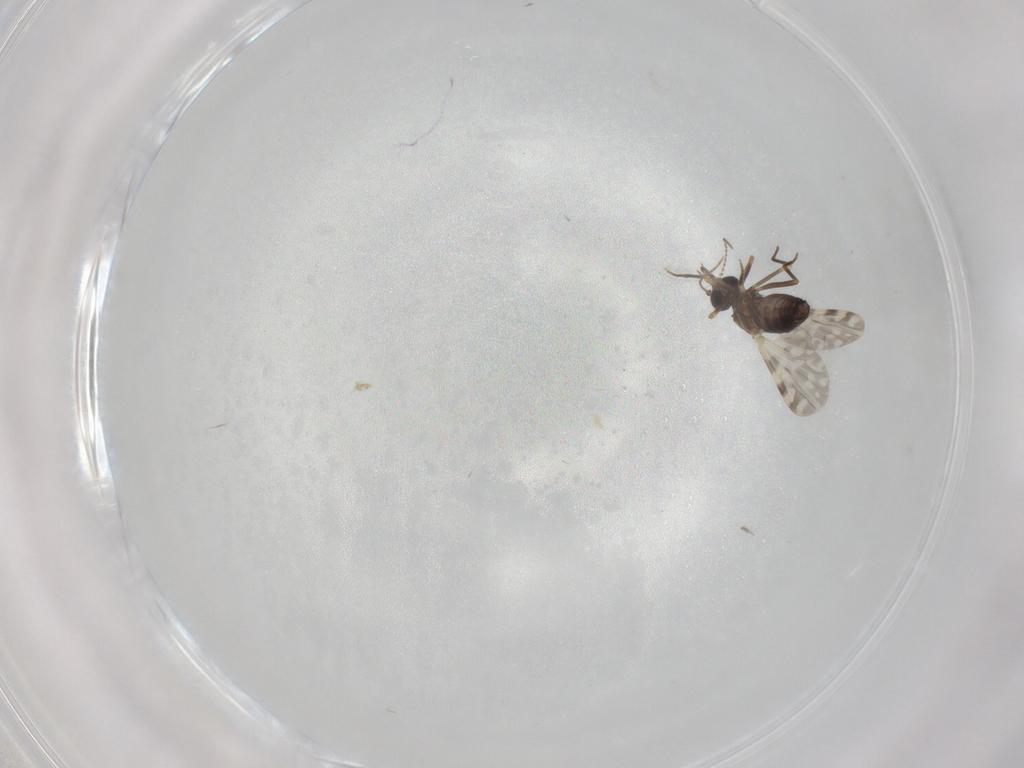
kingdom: Animalia
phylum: Arthropoda
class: Insecta
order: Diptera
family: Ceratopogonidae
